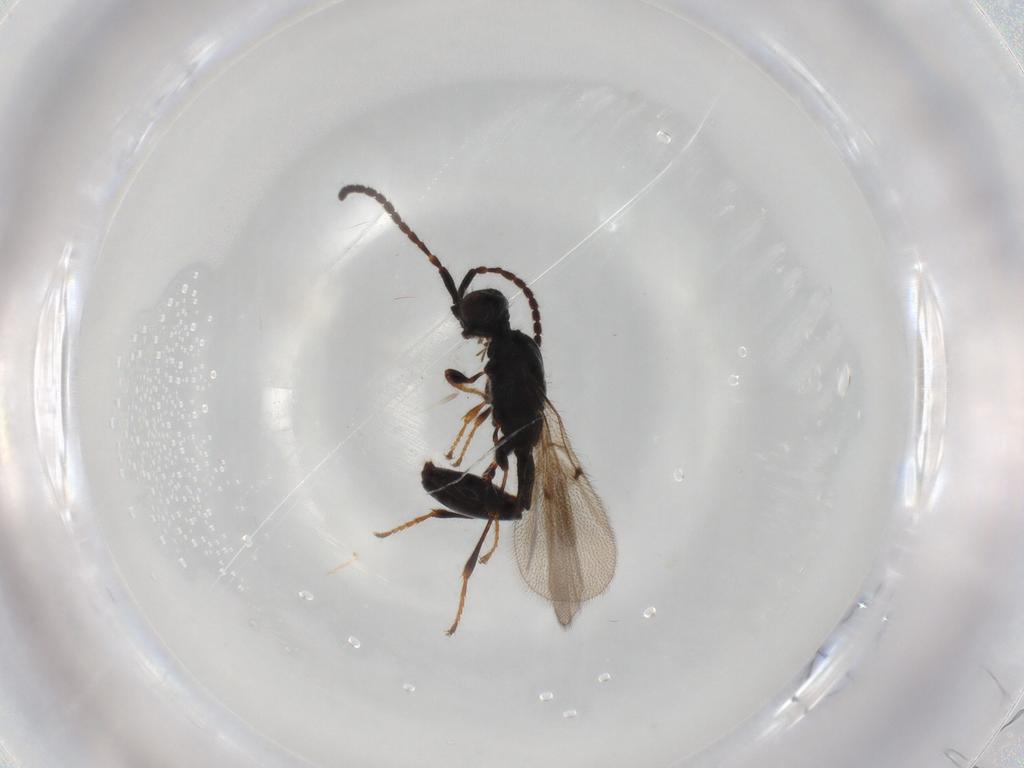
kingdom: Animalia
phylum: Arthropoda
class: Insecta
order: Hymenoptera
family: Diapriidae
